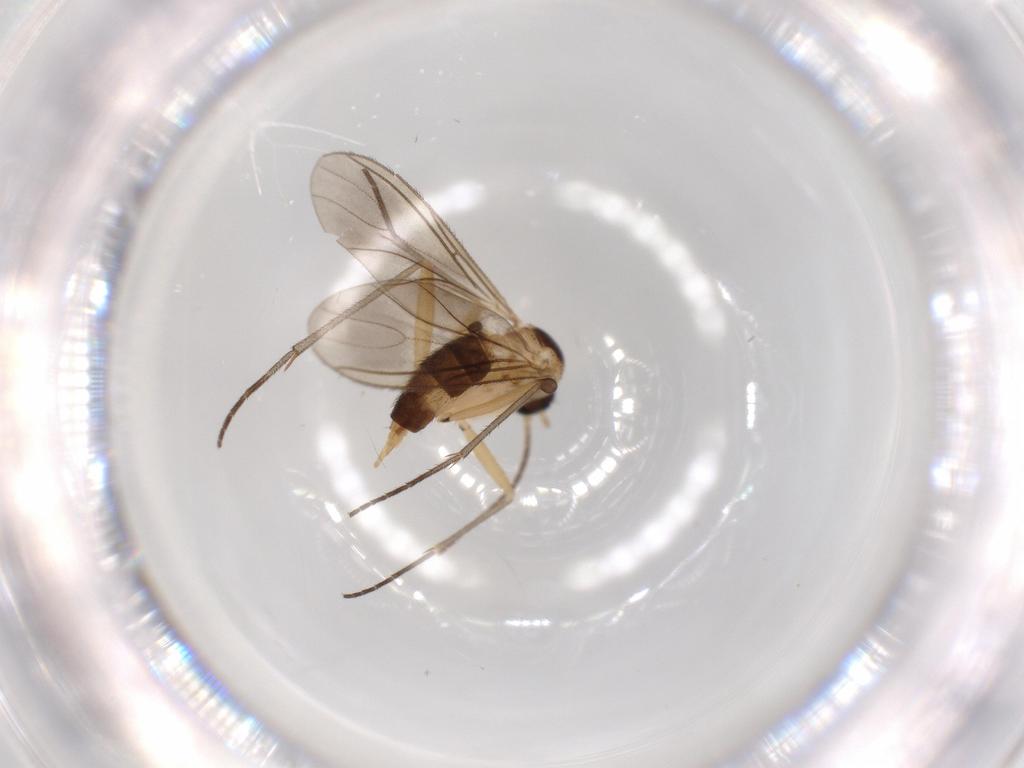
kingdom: Animalia
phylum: Arthropoda
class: Insecta
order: Diptera
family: Sciaridae
